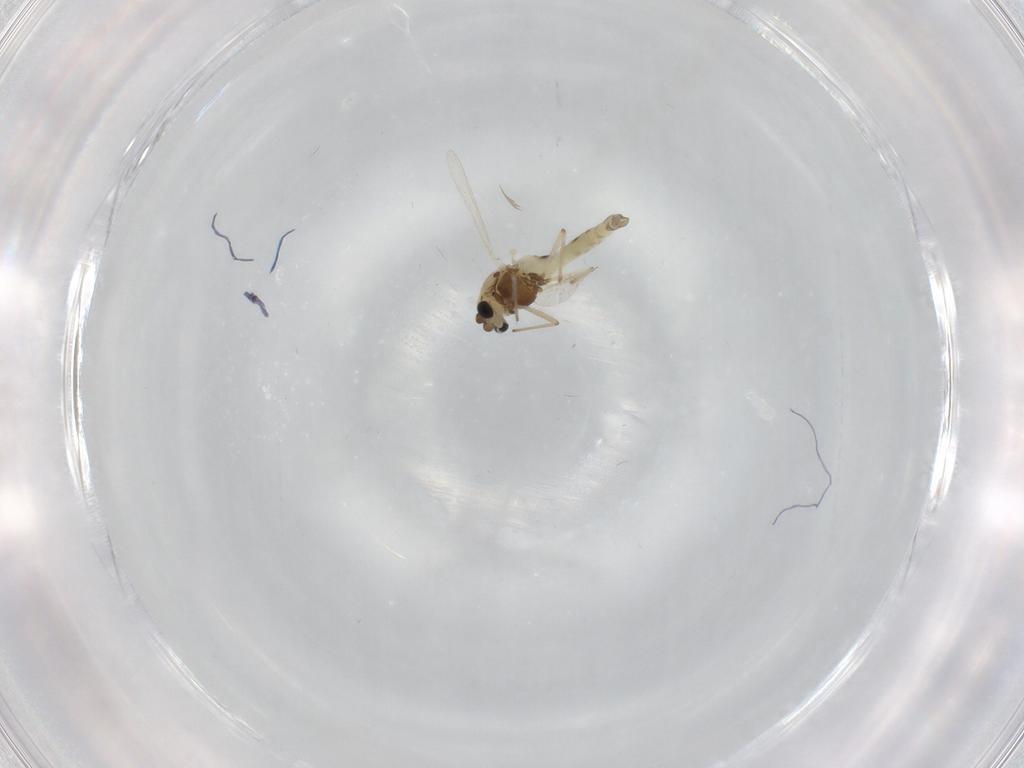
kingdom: Animalia
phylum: Arthropoda
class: Insecta
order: Diptera
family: Chironomidae
